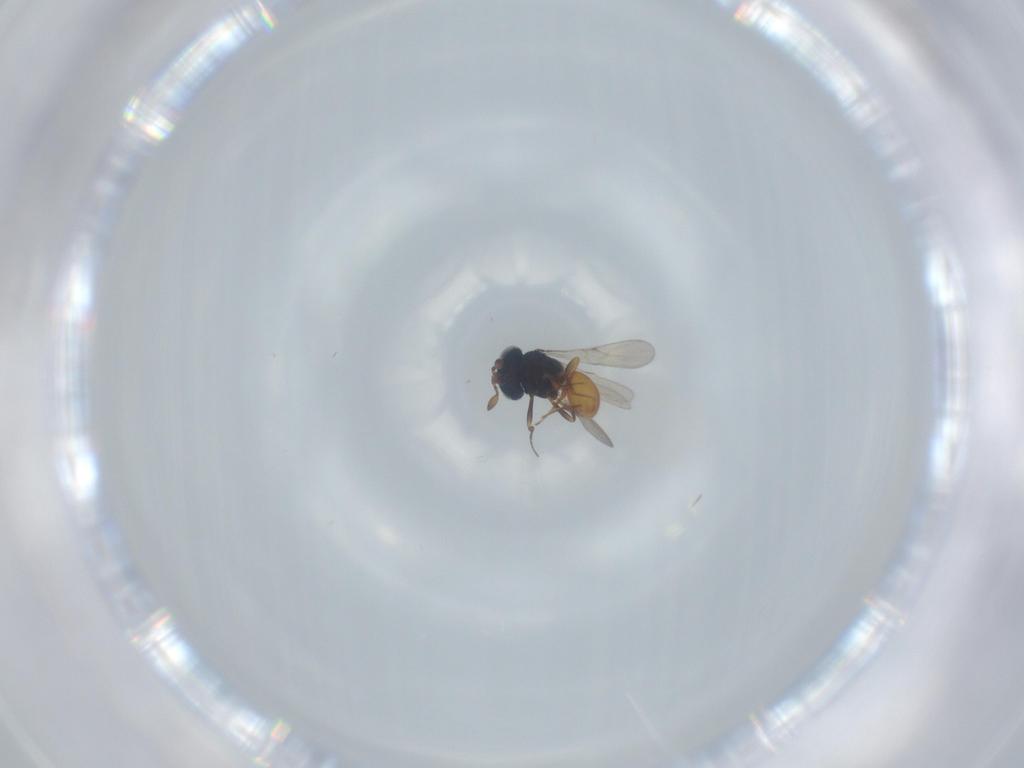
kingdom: Animalia
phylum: Arthropoda
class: Insecta
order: Hymenoptera
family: Scelionidae
